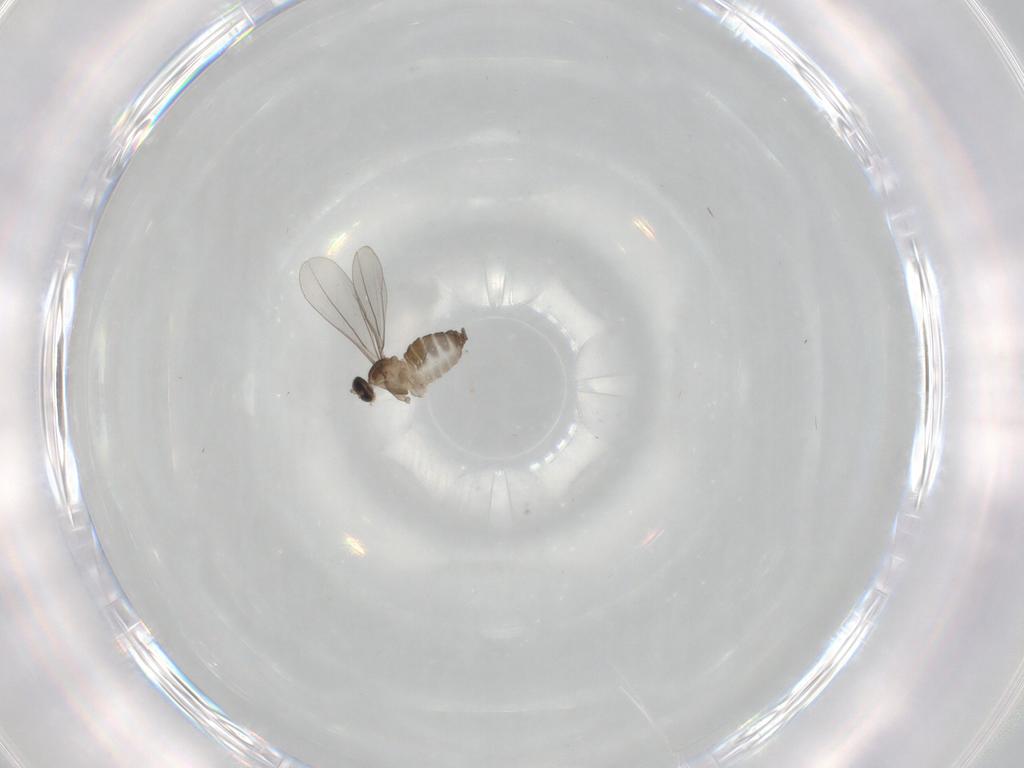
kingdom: Animalia
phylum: Arthropoda
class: Insecta
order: Diptera
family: Cecidomyiidae
